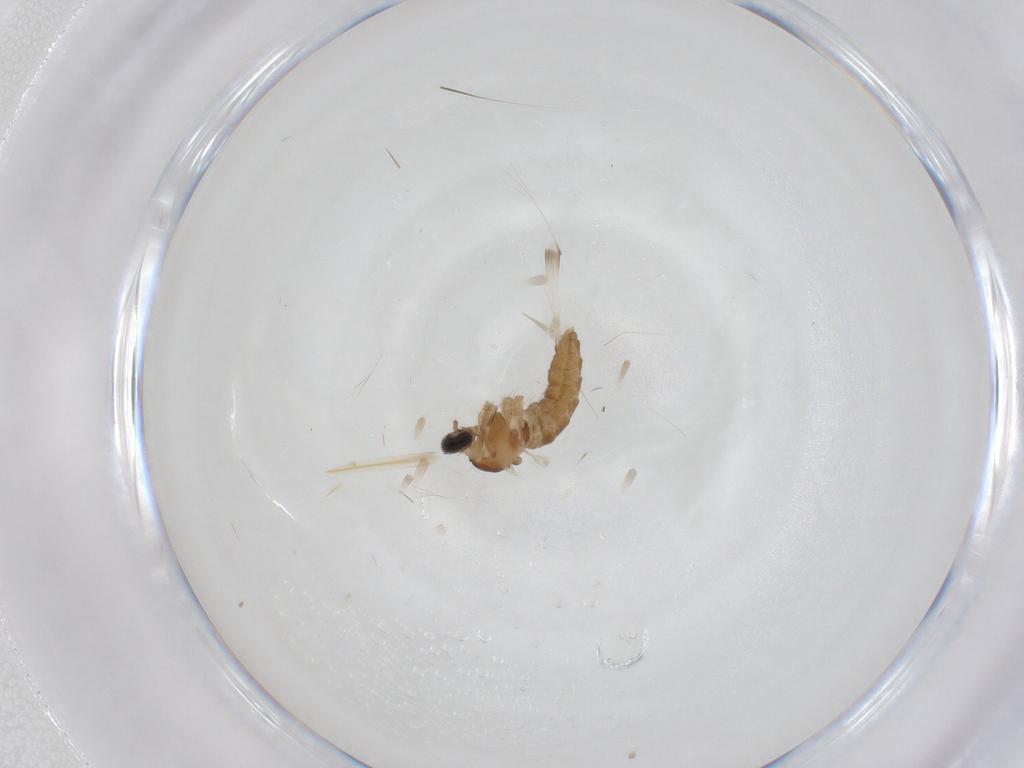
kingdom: Animalia
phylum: Arthropoda
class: Insecta
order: Diptera
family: Cecidomyiidae
